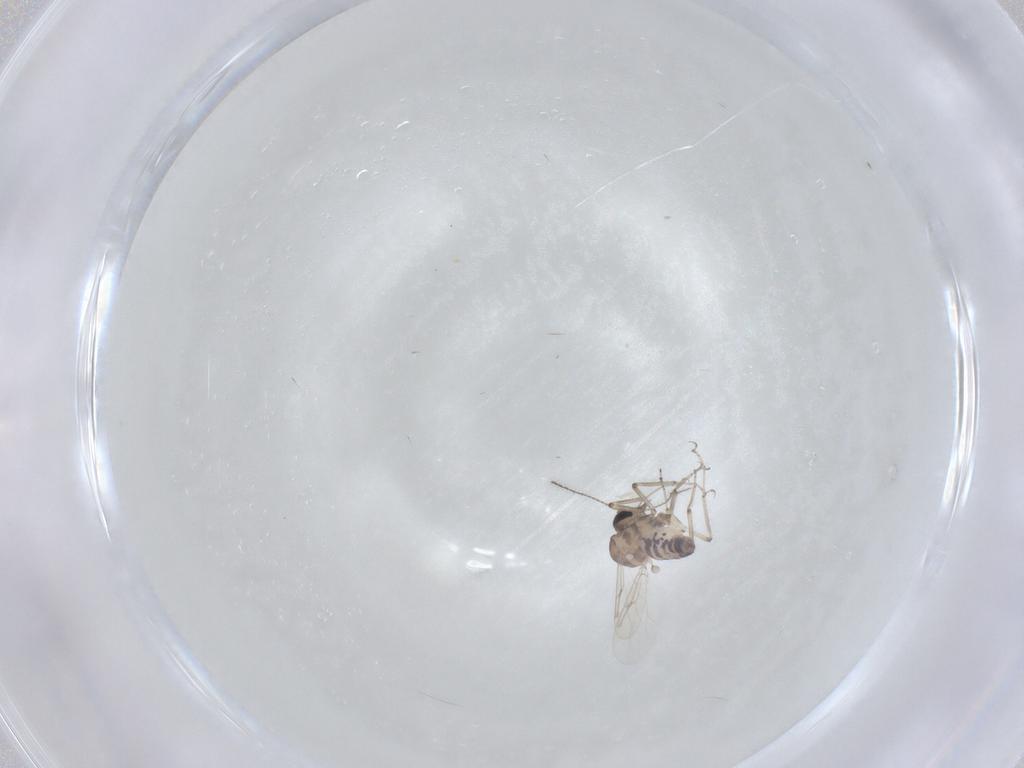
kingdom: Animalia
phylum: Arthropoda
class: Insecta
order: Diptera
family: Ceratopogonidae
